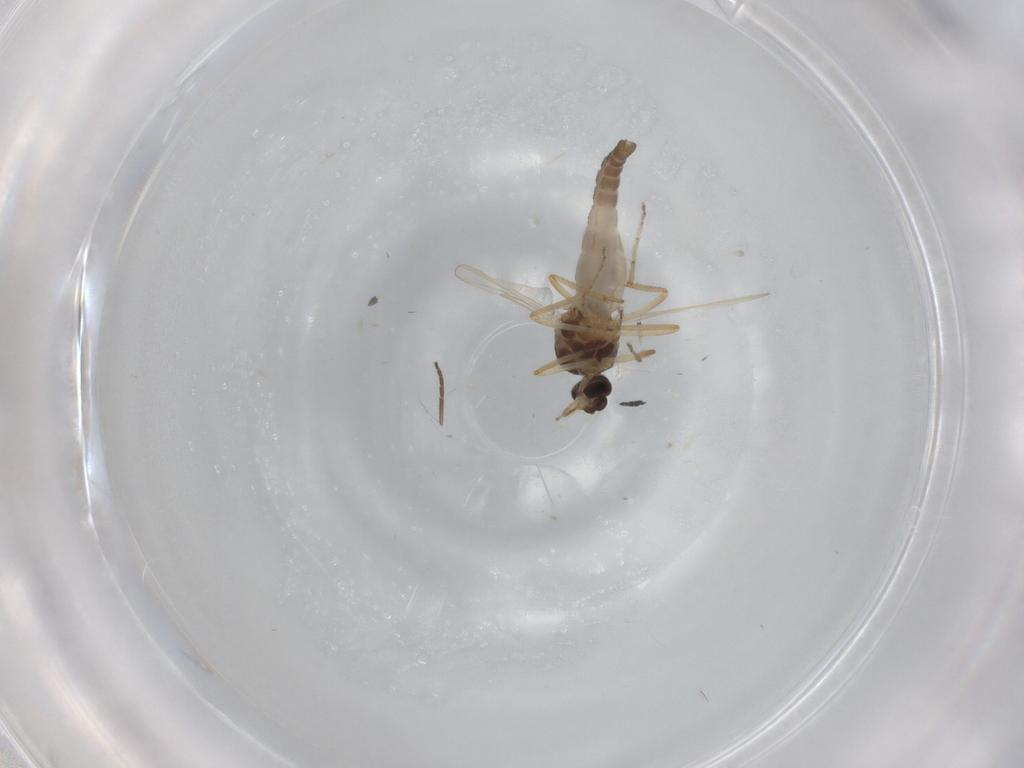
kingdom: Animalia
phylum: Arthropoda
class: Insecta
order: Diptera
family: Ceratopogonidae
